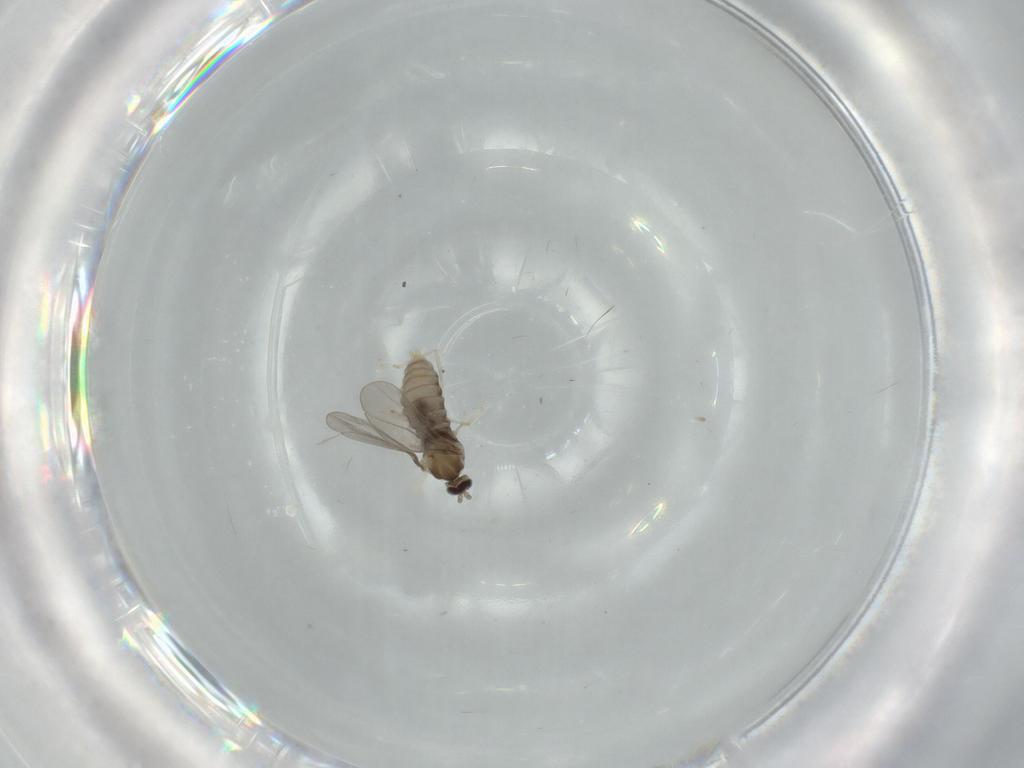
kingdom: Animalia
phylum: Arthropoda
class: Insecta
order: Diptera
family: Cecidomyiidae
